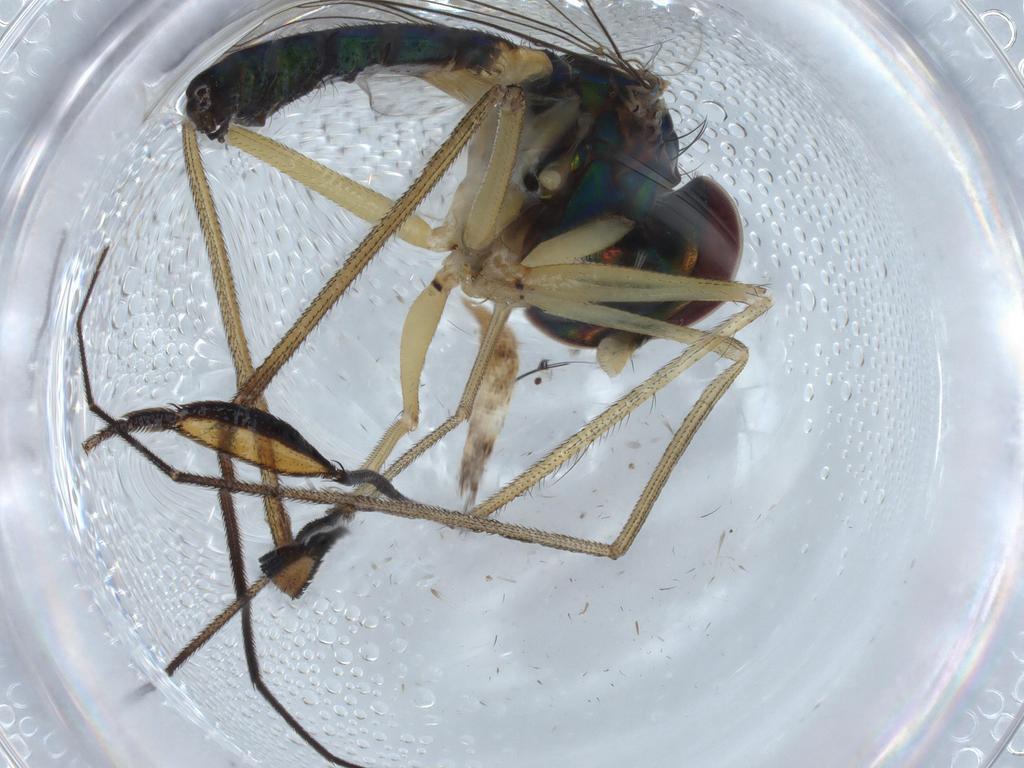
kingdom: Animalia
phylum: Arthropoda
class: Insecta
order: Diptera
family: Dolichopodidae
